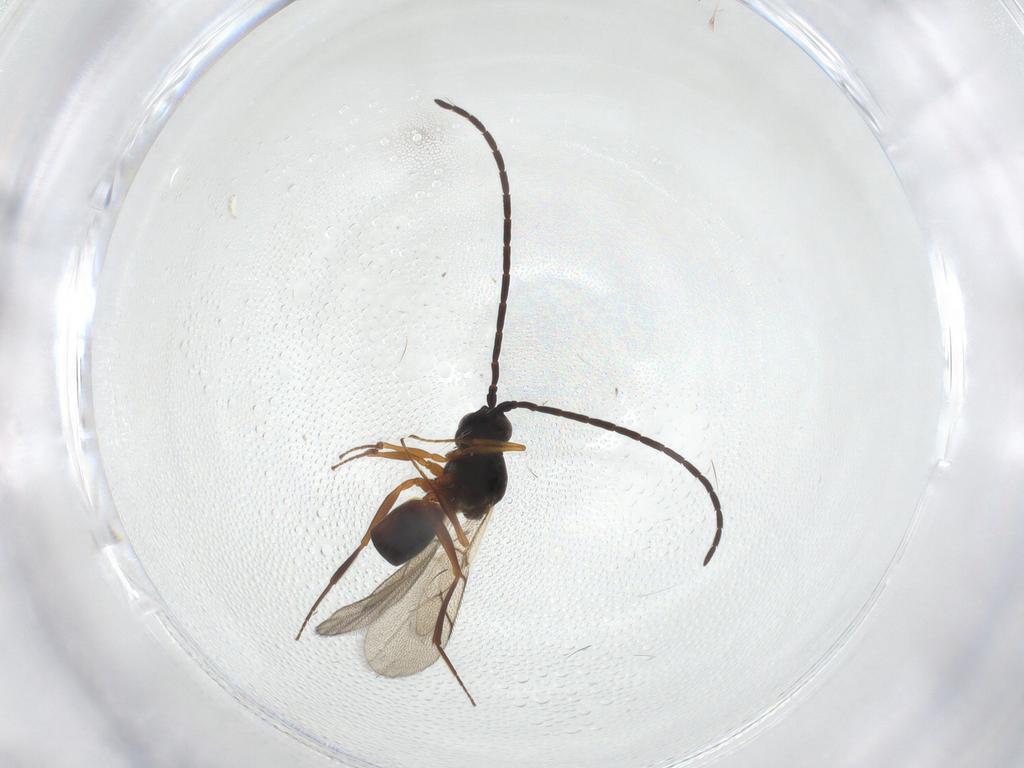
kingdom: Animalia
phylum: Arthropoda
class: Insecta
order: Hymenoptera
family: Figitidae
